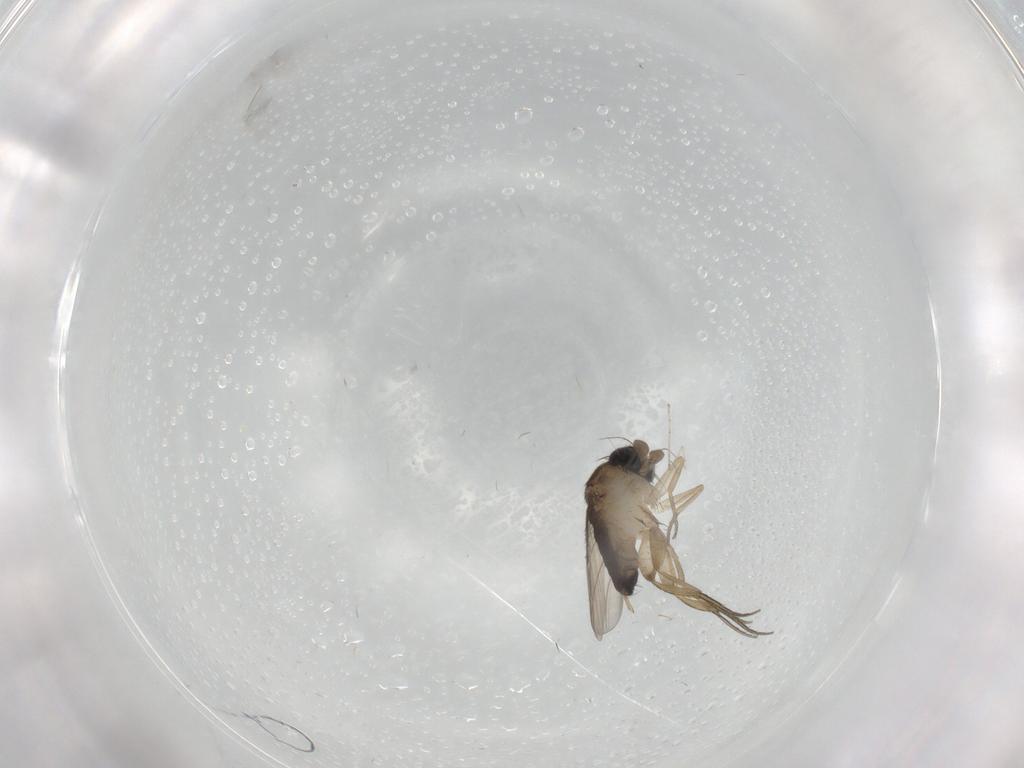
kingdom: Animalia
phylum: Arthropoda
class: Insecta
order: Diptera
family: Phoridae
